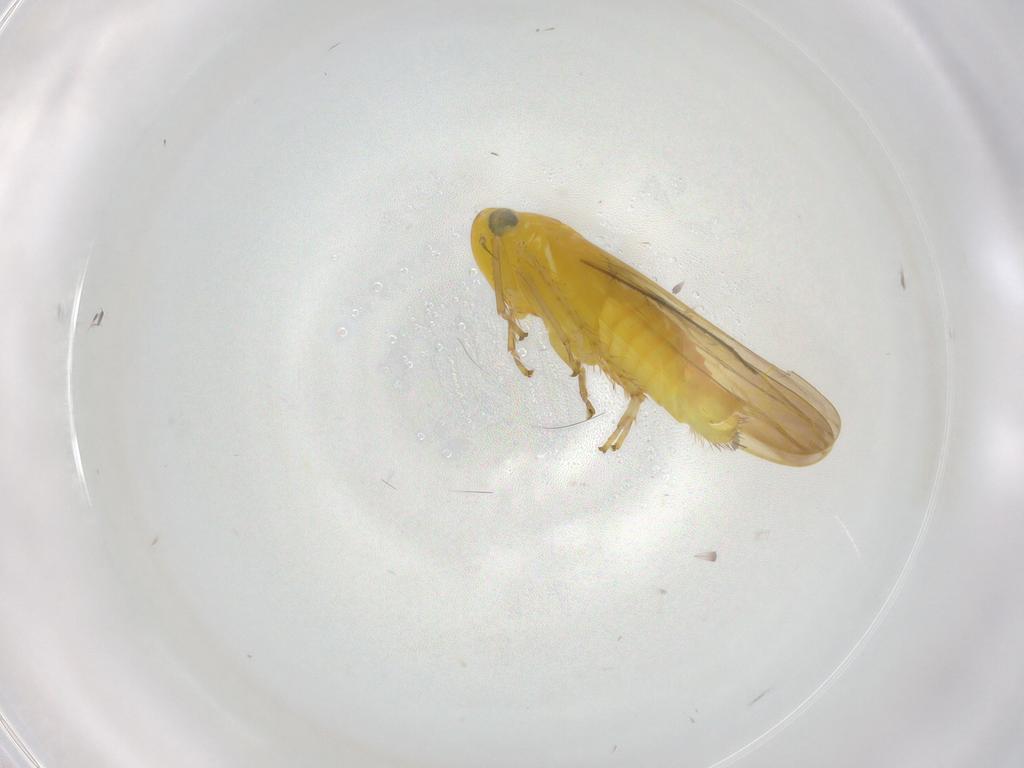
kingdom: Animalia
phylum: Arthropoda
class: Insecta
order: Hemiptera
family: Cicadellidae
